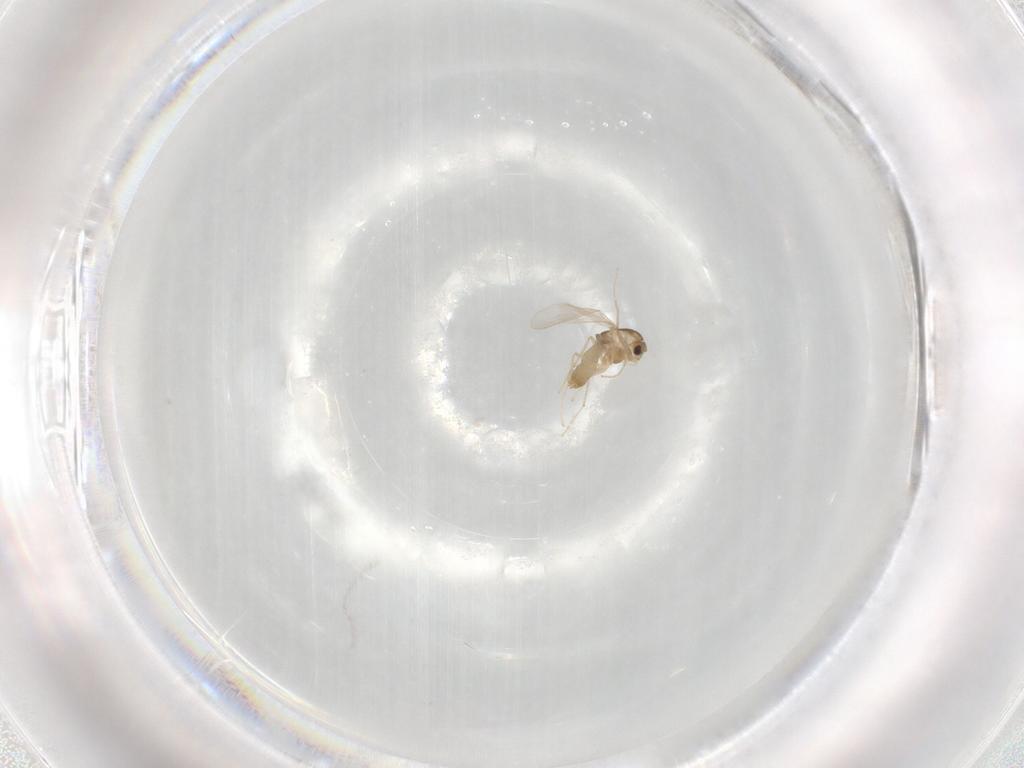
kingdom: Animalia
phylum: Arthropoda
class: Insecta
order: Diptera
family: Chironomidae
